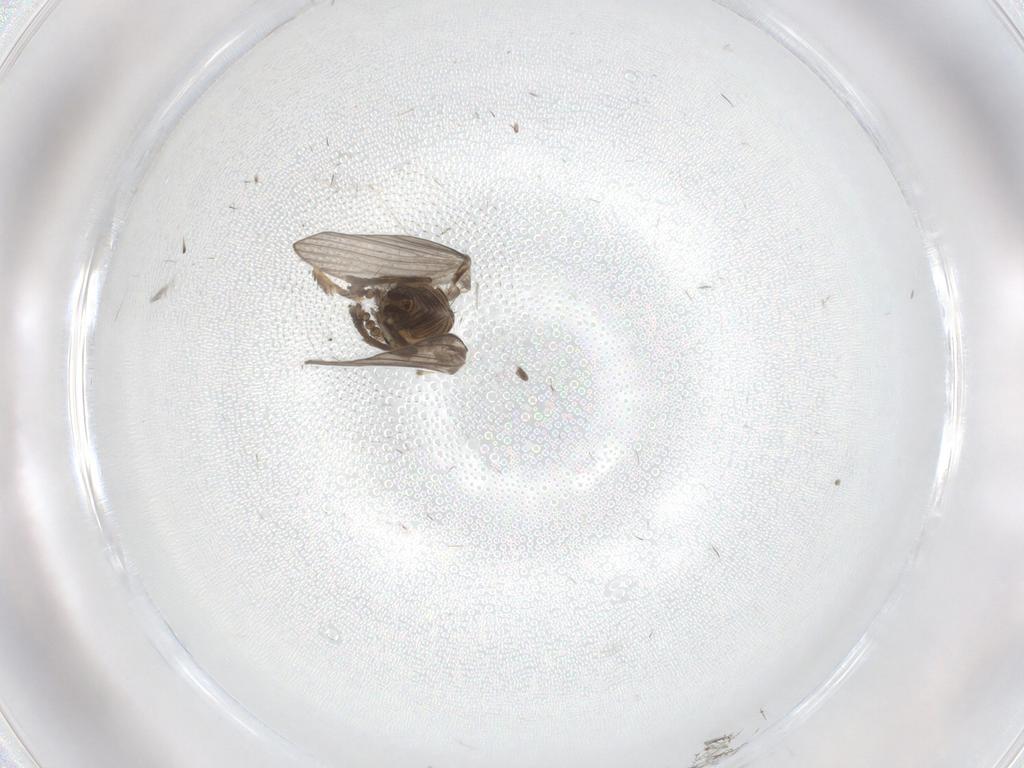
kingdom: Animalia
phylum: Arthropoda
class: Insecta
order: Diptera
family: Psychodidae
